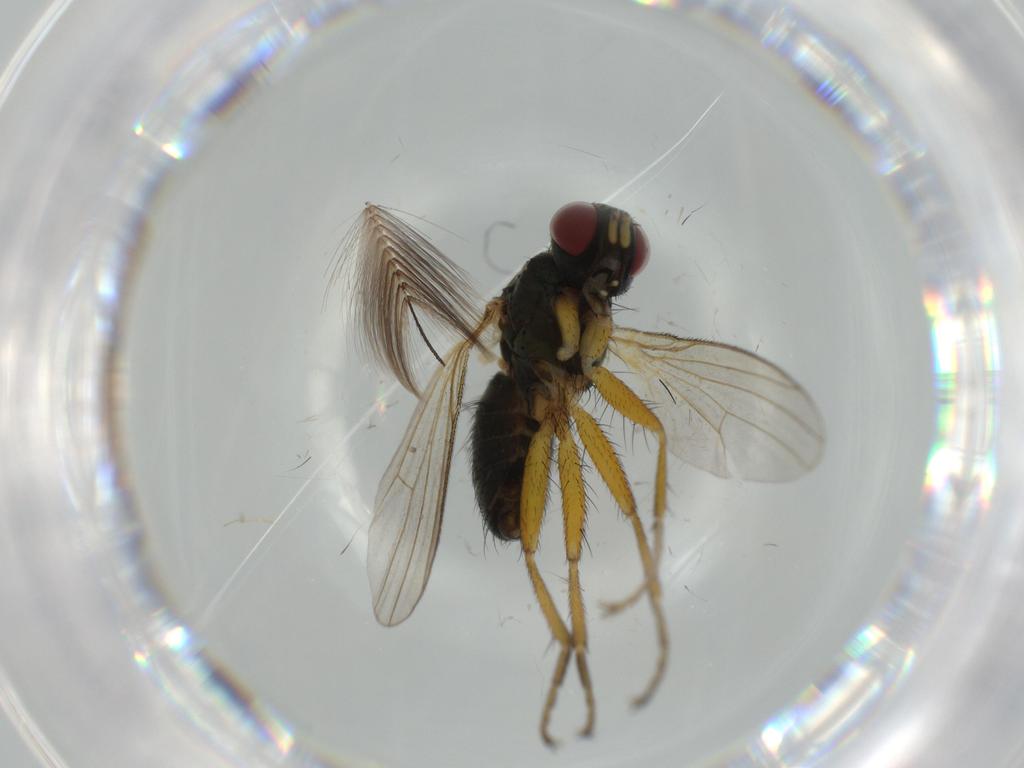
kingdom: Animalia
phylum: Arthropoda
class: Insecta
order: Diptera
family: Muscidae
